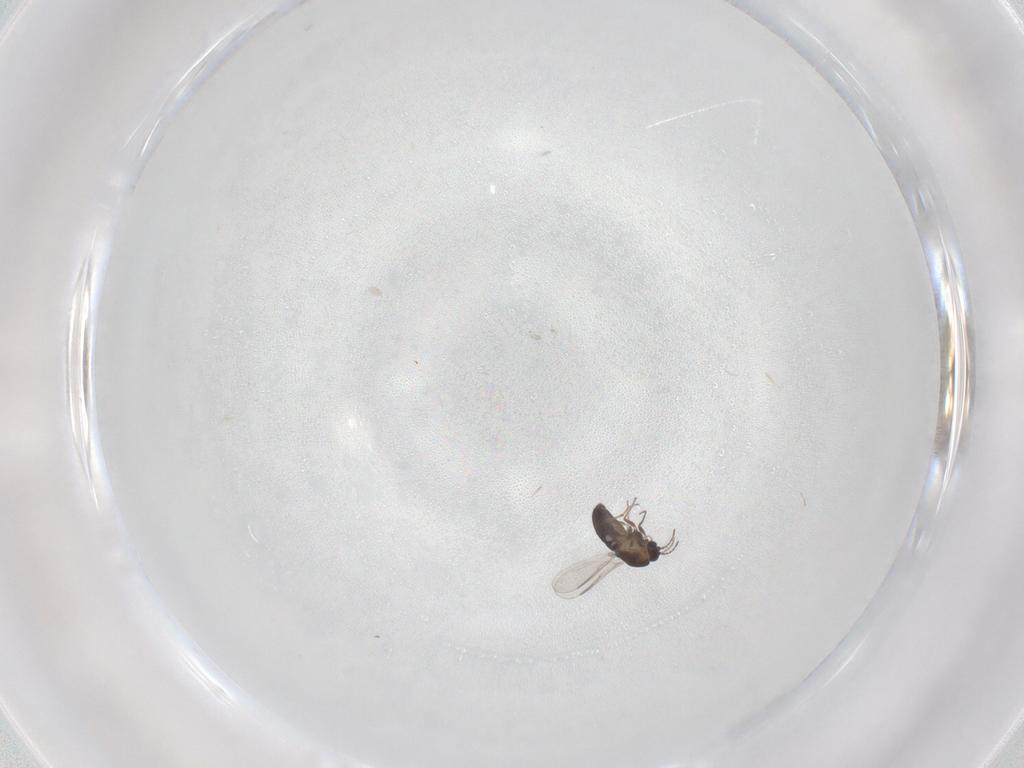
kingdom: Animalia
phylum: Arthropoda
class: Insecta
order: Diptera
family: Chironomidae
